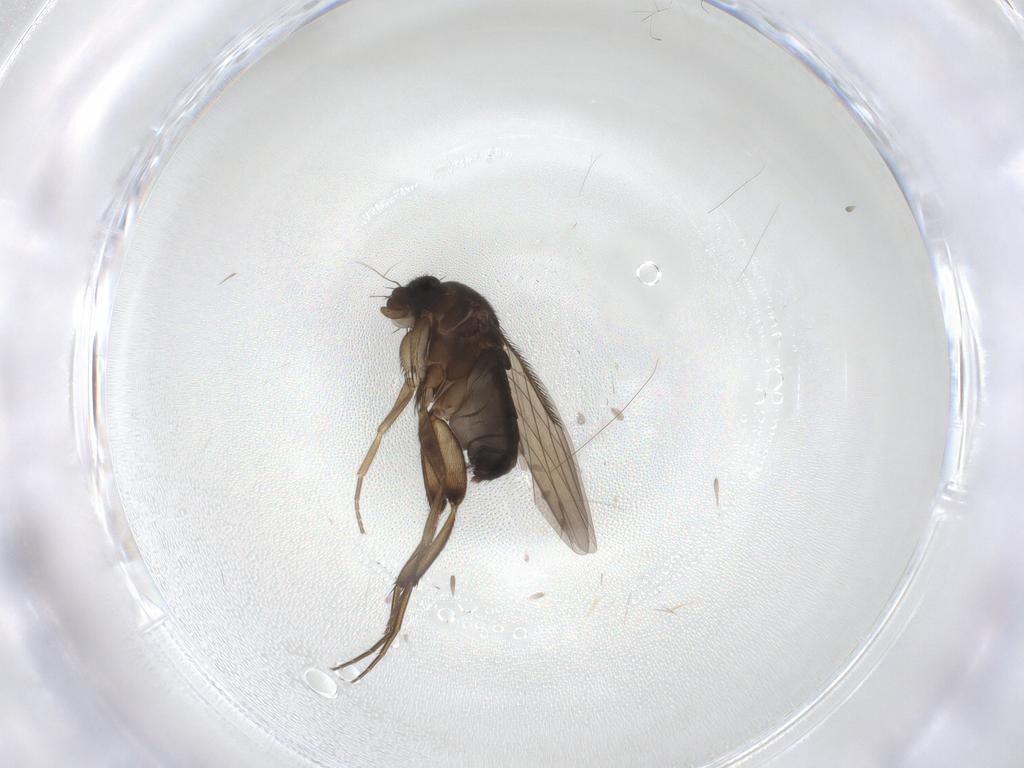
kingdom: Animalia
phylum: Arthropoda
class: Insecta
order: Diptera
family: Phoridae
